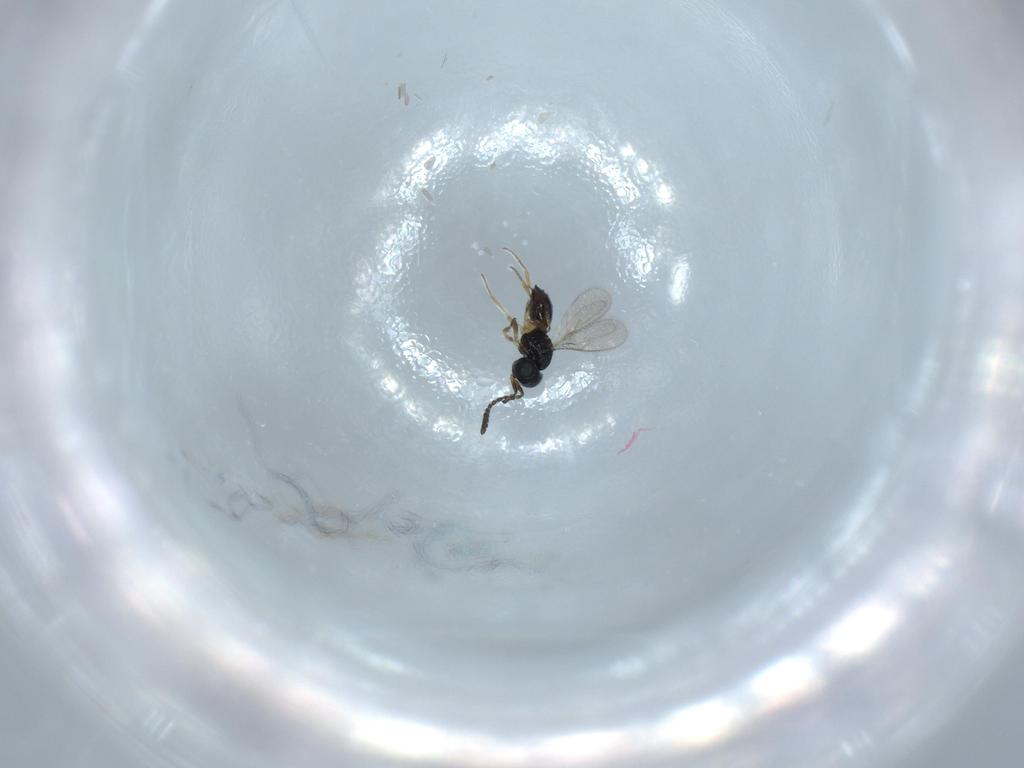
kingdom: Animalia
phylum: Arthropoda
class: Insecta
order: Hymenoptera
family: Scelionidae
